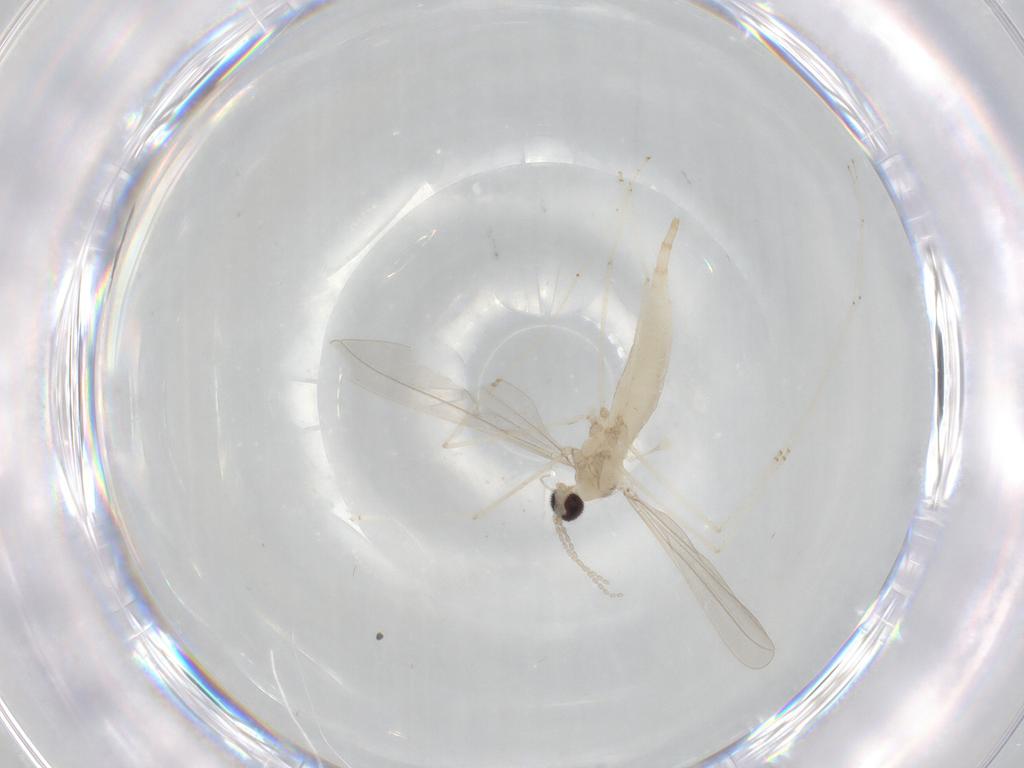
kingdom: Animalia
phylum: Arthropoda
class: Insecta
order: Diptera
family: Cecidomyiidae
